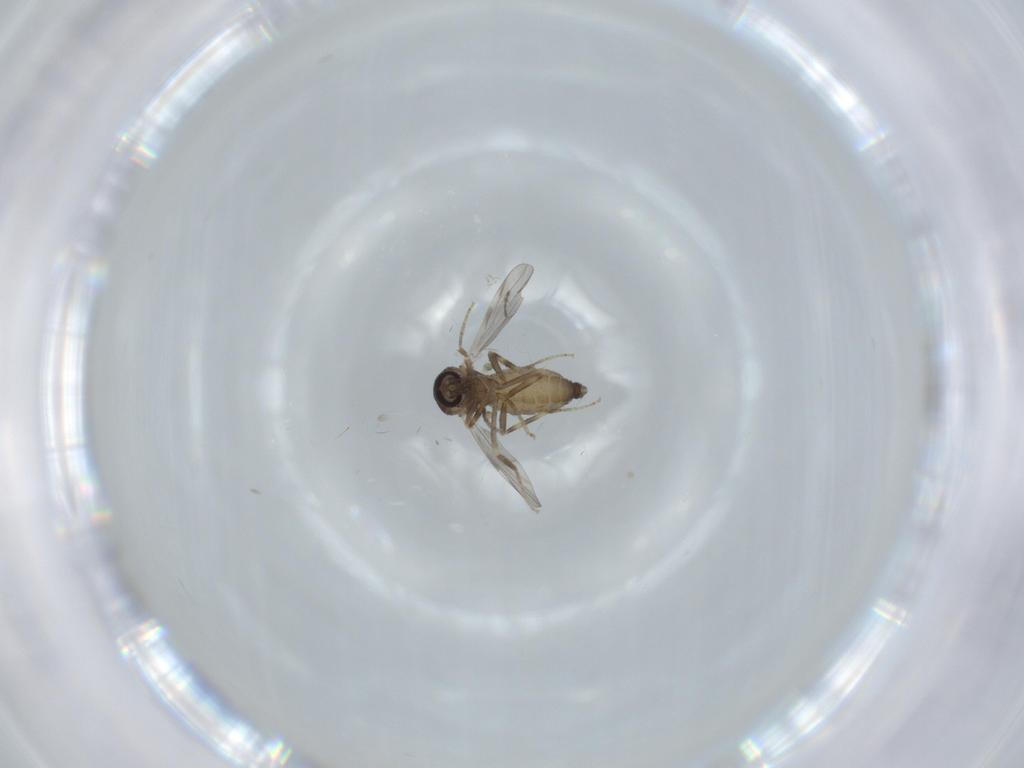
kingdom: Animalia
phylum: Arthropoda
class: Insecta
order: Diptera
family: Ceratopogonidae
